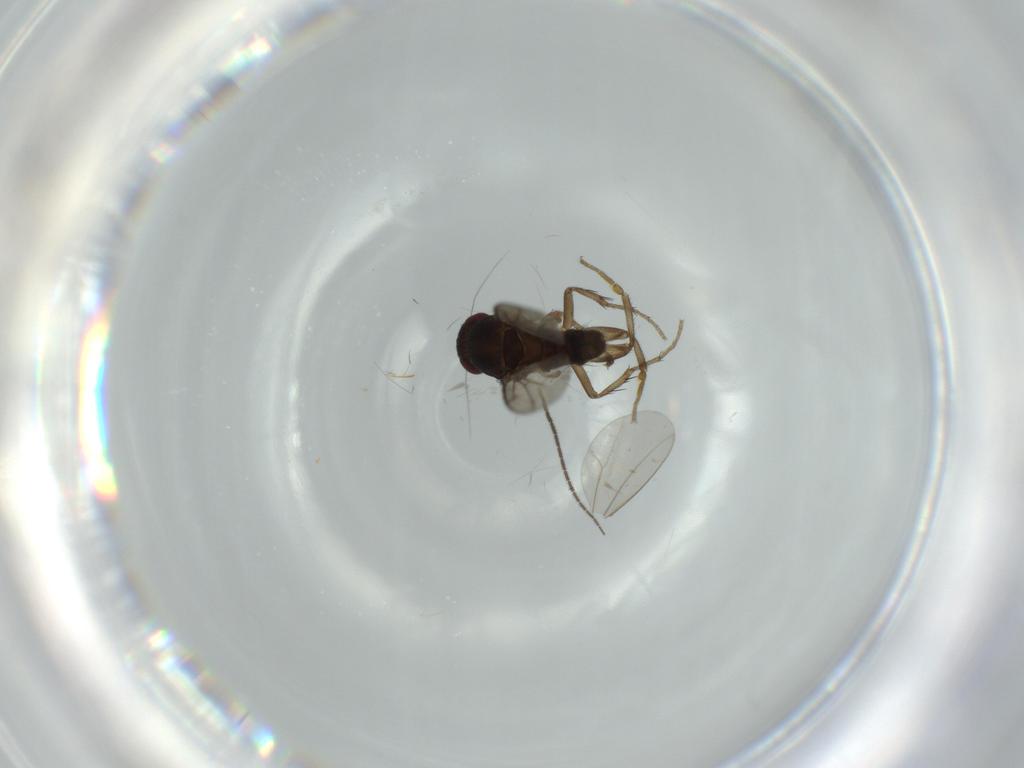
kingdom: Animalia
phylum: Arthropoda
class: Insecta
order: Diptera
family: Sphaeroceridae
